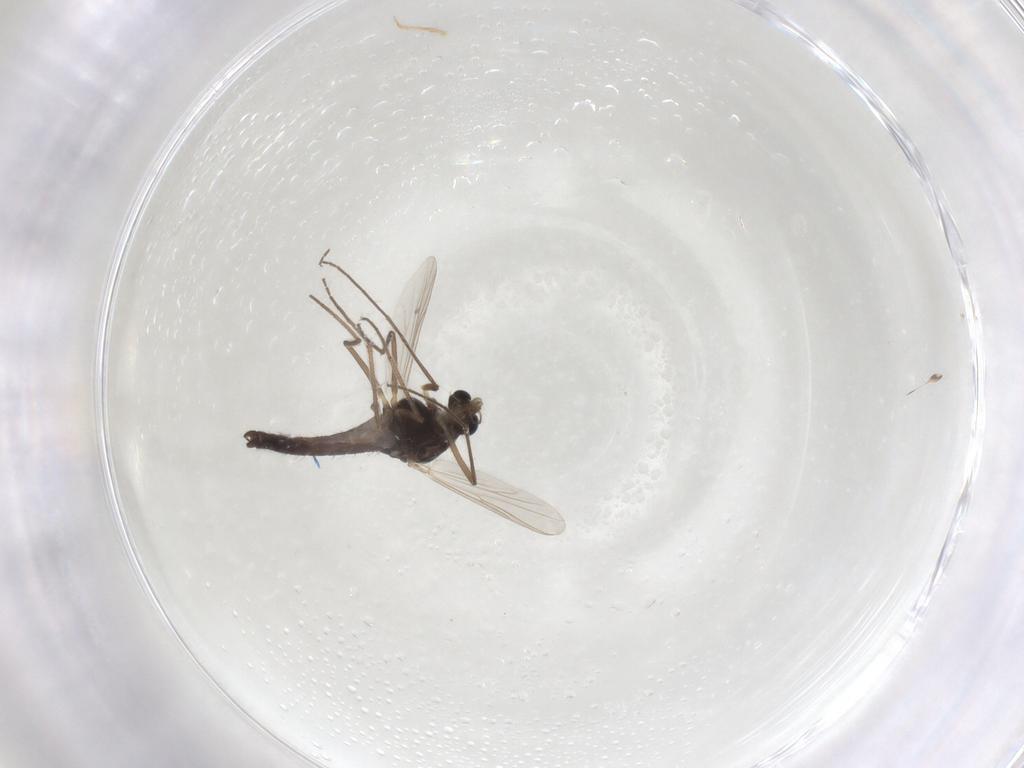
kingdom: Animalia
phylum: Arthropoda
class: Insecta
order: Diptera
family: Chironomidae
